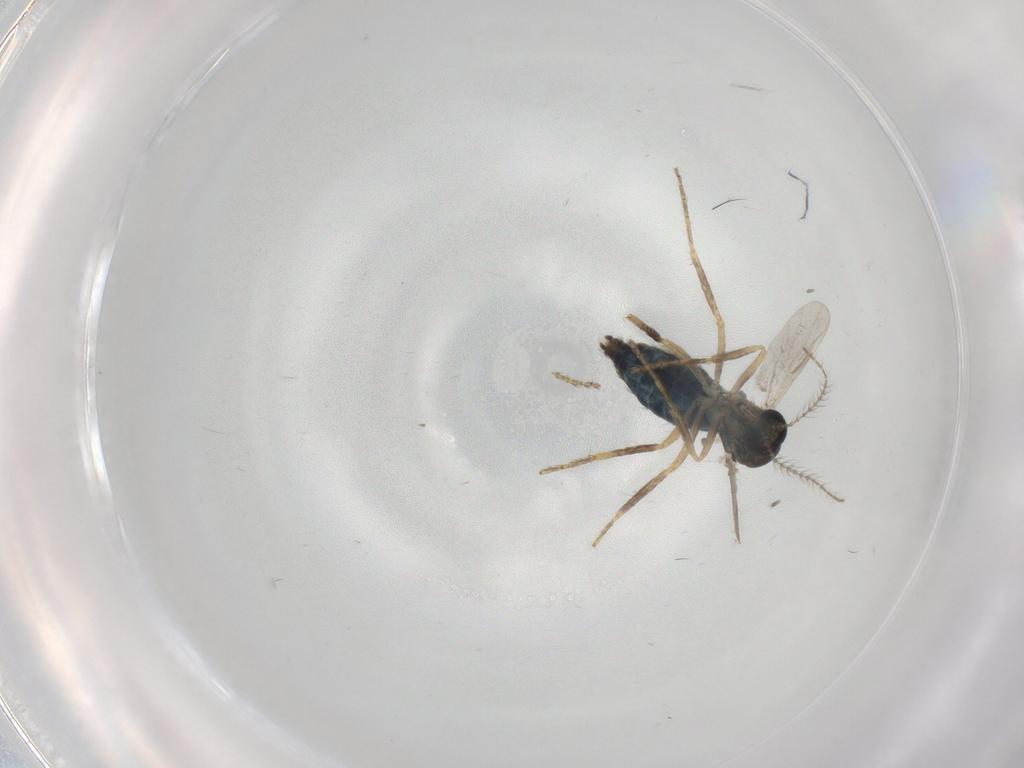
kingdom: Animalia
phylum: Arthropoda
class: Insecta
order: Diptera
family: Ceratopogonidae
